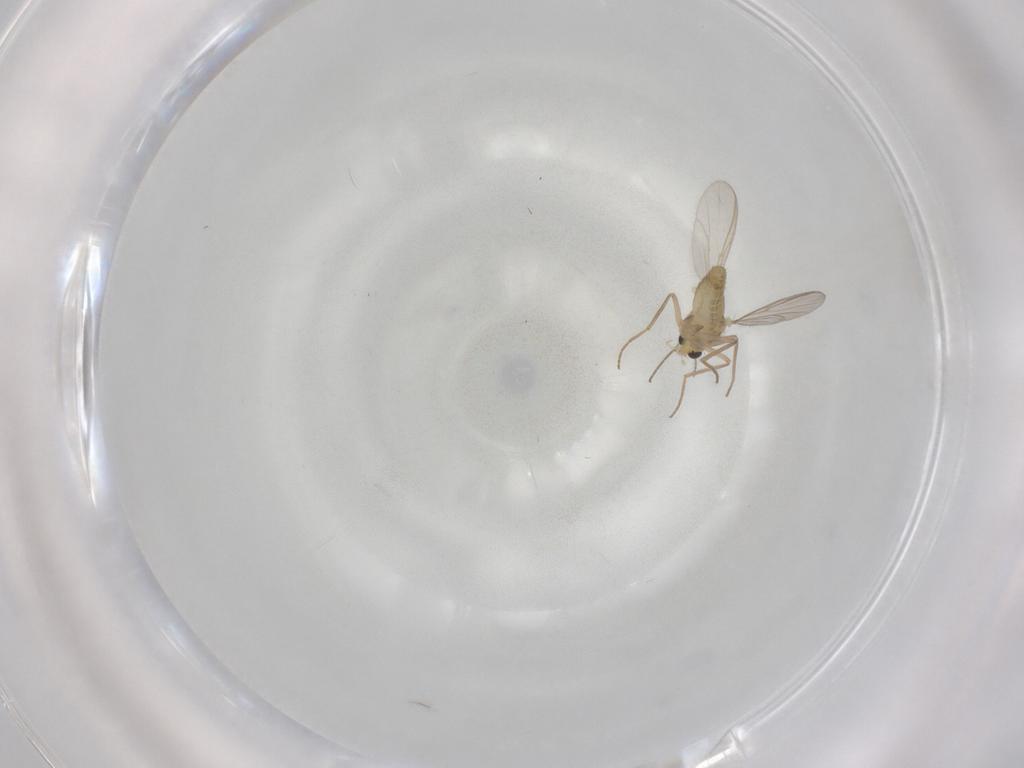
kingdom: Animalia
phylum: Arthropoda
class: Insecta
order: Diptera
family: Chironomidae
